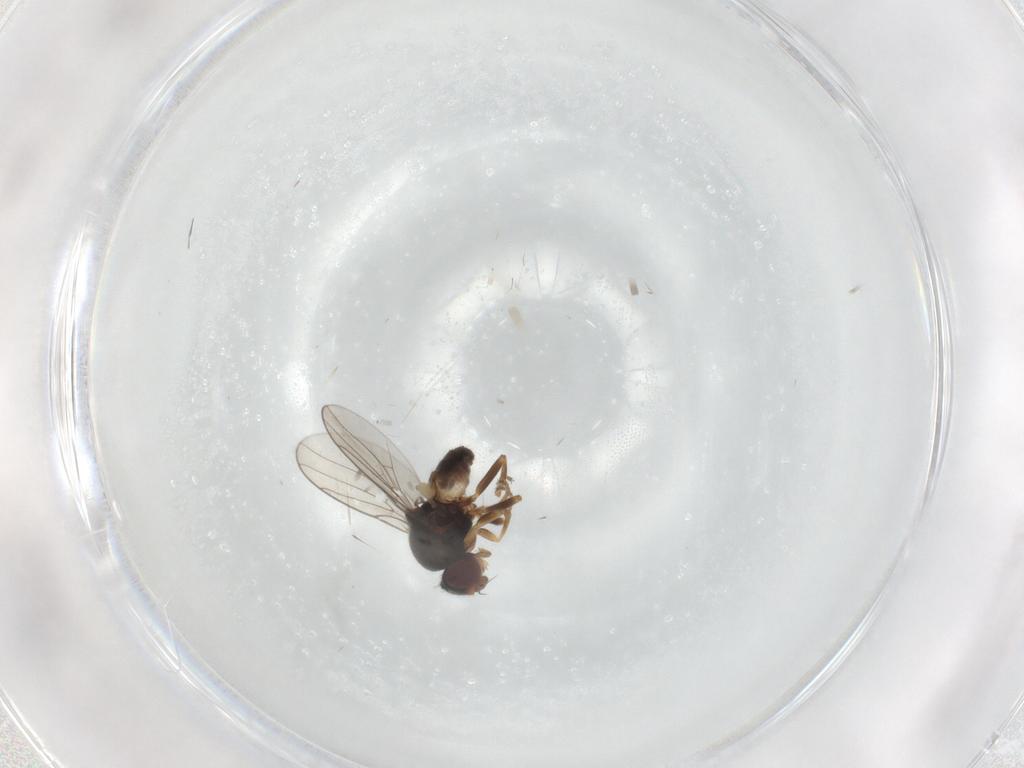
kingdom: Animalia
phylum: Arthropoda
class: Insecta
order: Diptera
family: Chloropidae
